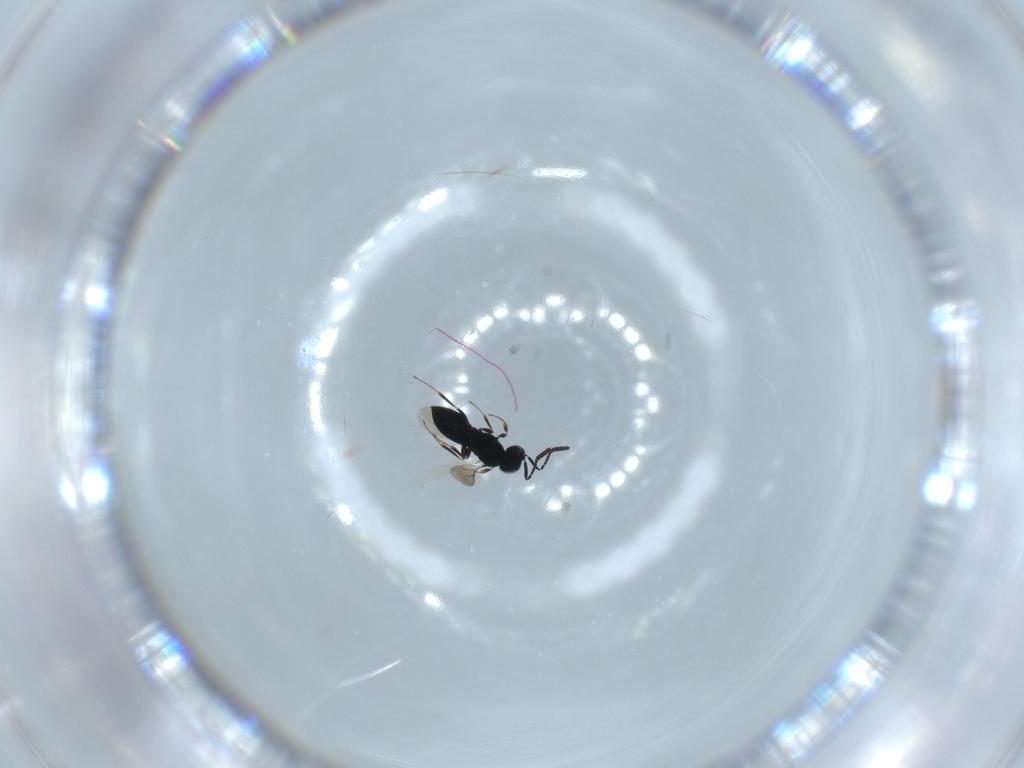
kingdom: Animalia
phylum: Arthropoda
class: Insecta
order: Hymenoptera
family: Scelionidae
